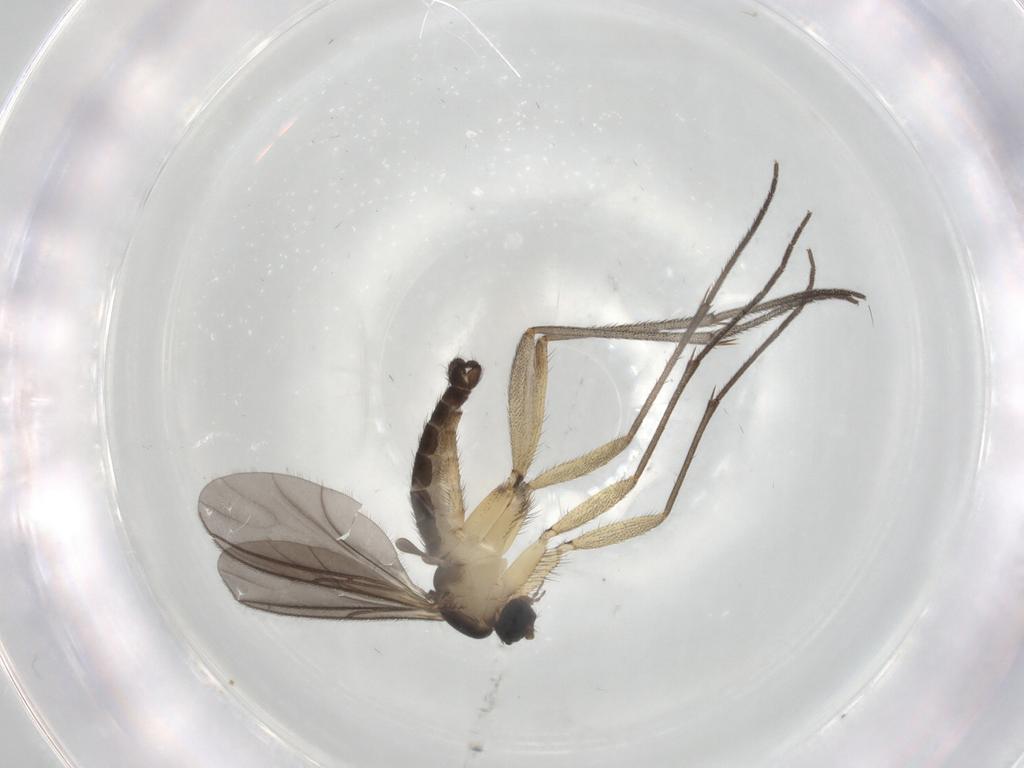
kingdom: Animalia
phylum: Arthropoda
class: Insecta
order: Diptera
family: Sciaridae
